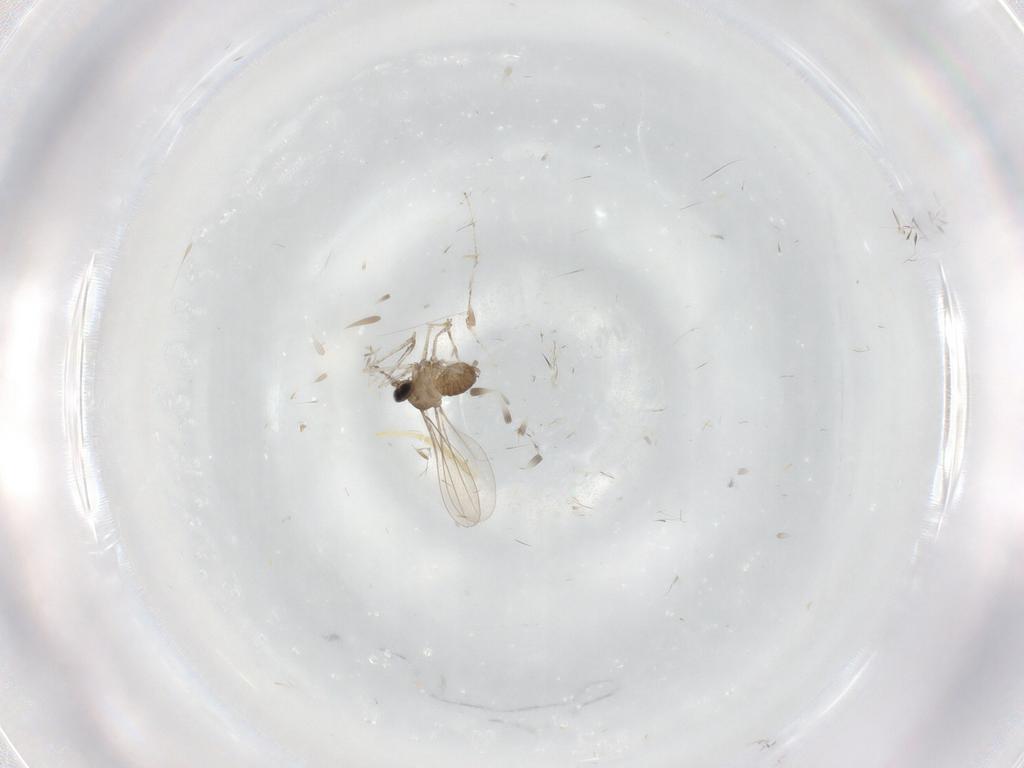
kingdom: Animalia
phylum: Arthropoda
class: Insecta
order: Diptera
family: Cecidomyiidae
